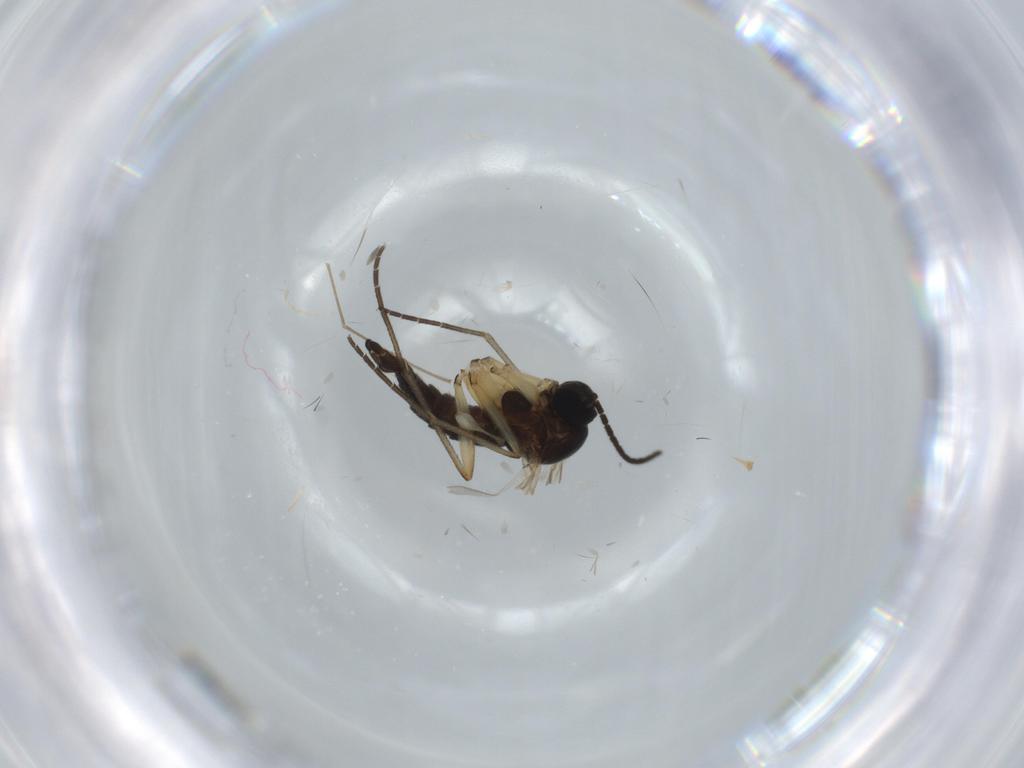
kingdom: Animalia
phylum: Arthropoda
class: Insecta
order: Diptera
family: Sciaridae
